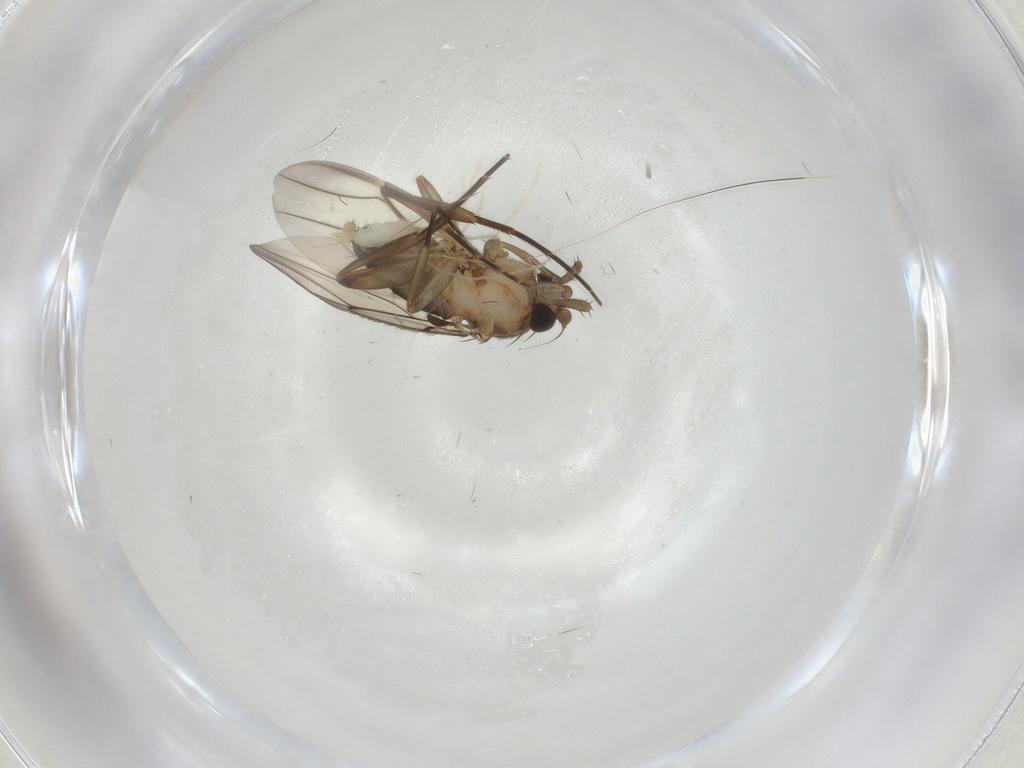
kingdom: Animalia
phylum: Arthropoda
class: Insecta
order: Diptera
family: Phoridae
